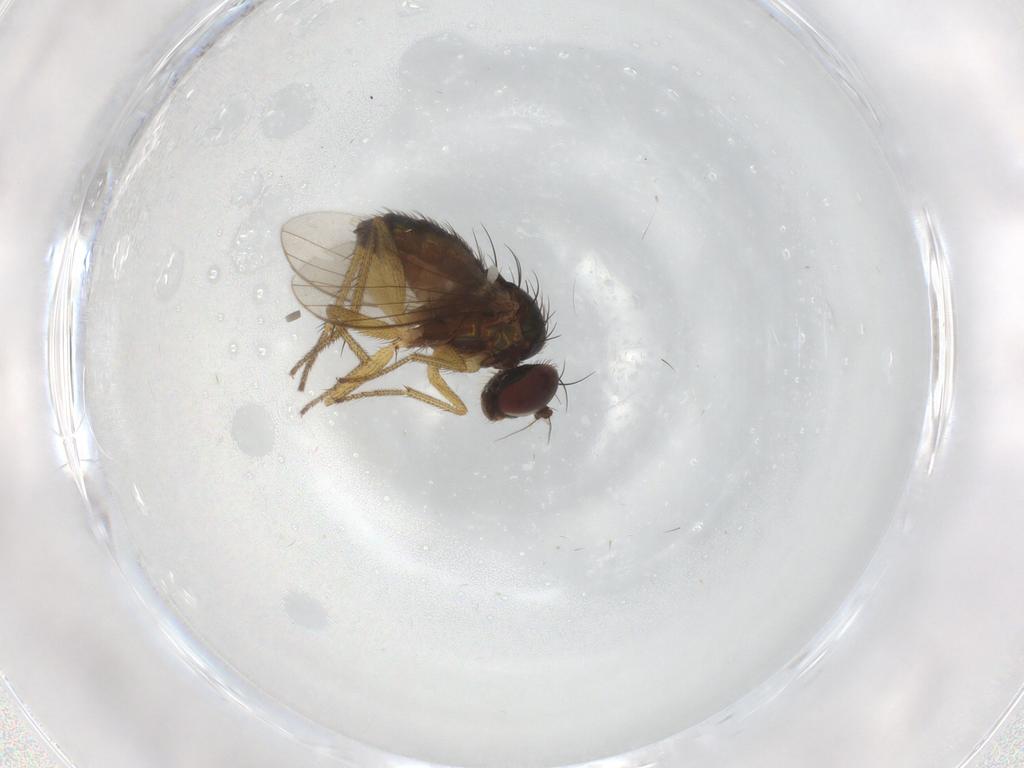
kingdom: Animalia
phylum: Arthropoda
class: Insecta
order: Diptera
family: Dolichopodidae
